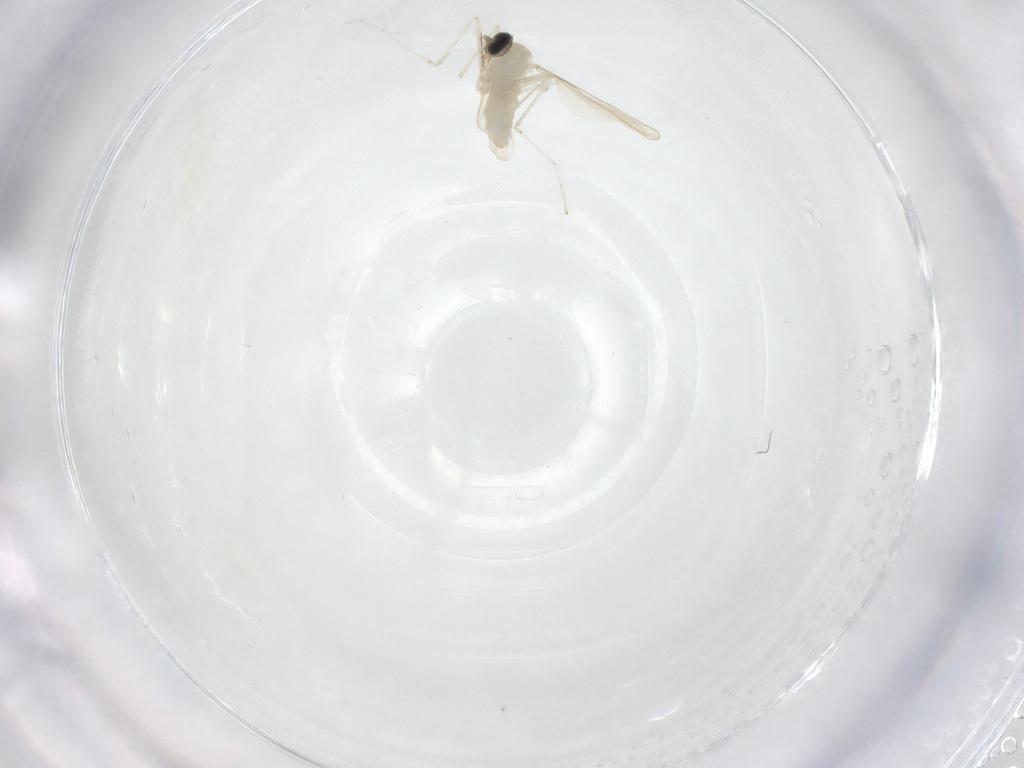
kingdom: Animalia
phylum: Arthropoda
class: Insecta
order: Diptera
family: Cecidomyiidae
